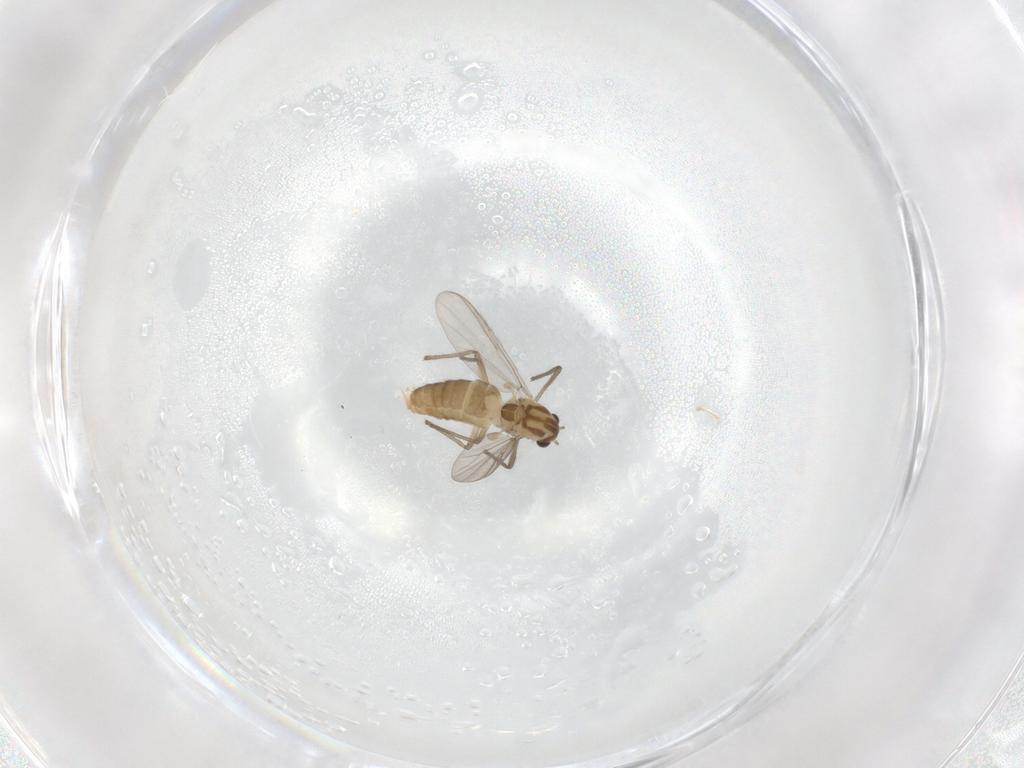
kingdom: Animalia
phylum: Arthropoda
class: Insecta
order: Diptera
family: Chironomidae
